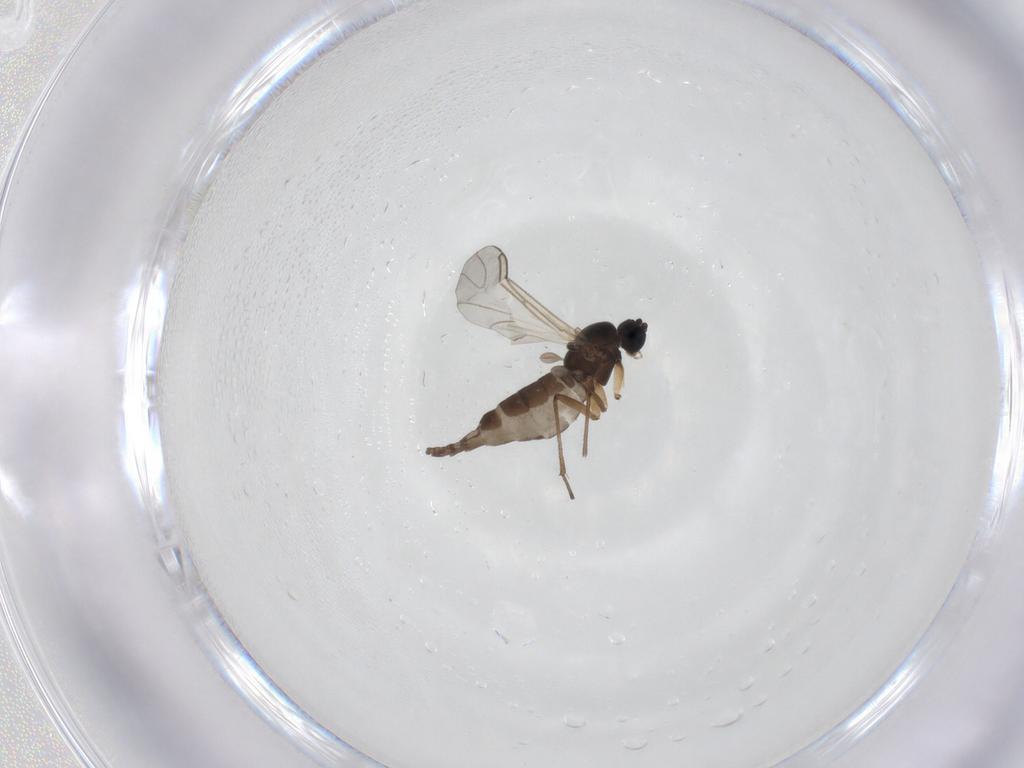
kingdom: Animalia
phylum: Arthropoda
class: Insecta
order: Diptera
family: Sciaridae
